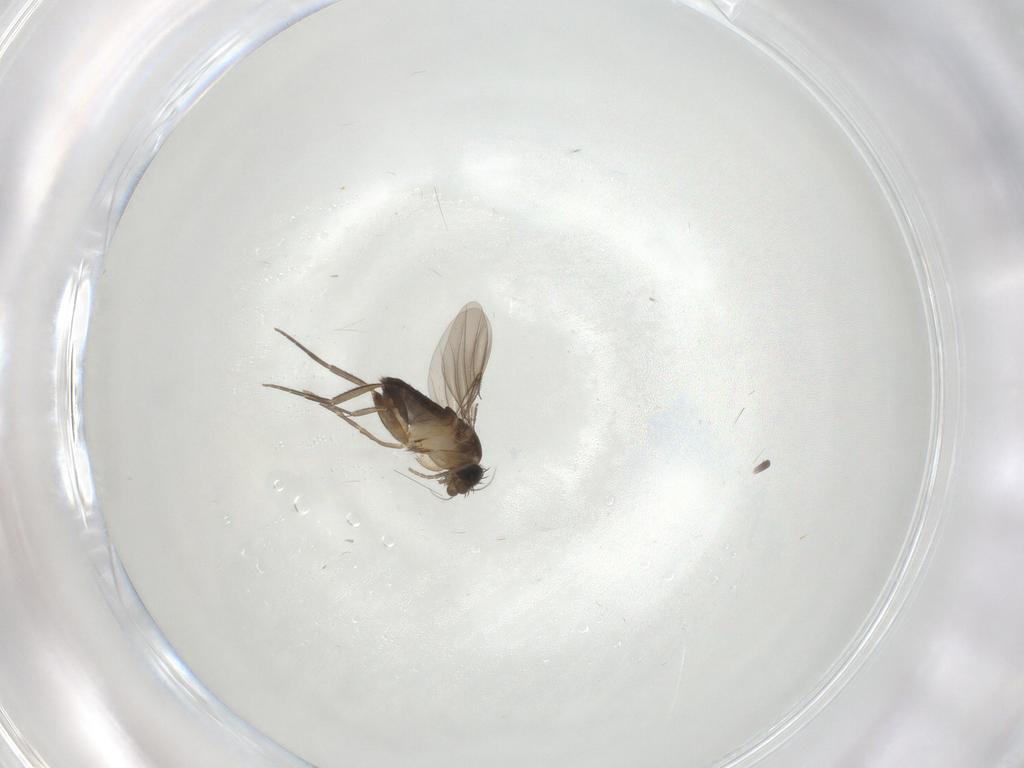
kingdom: Animalia
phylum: Arthropoda
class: Insecta
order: Diptera
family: Phoridae
